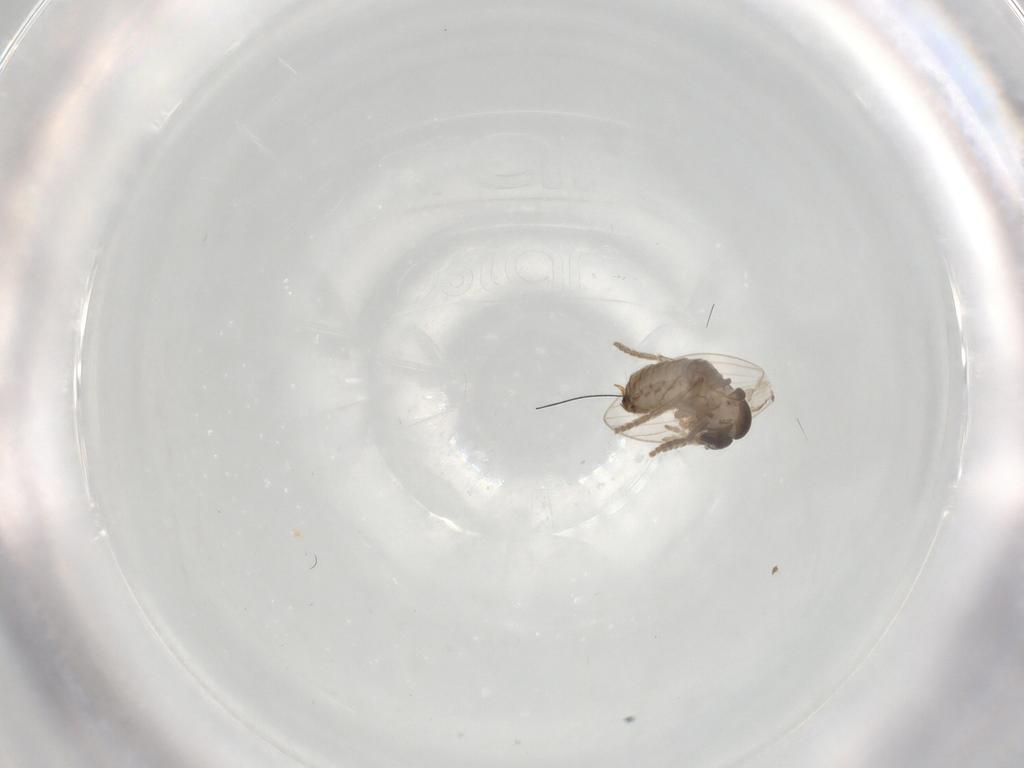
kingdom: Animalia
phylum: Arthropoda
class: Insecta
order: Diptera
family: Psychodidae
